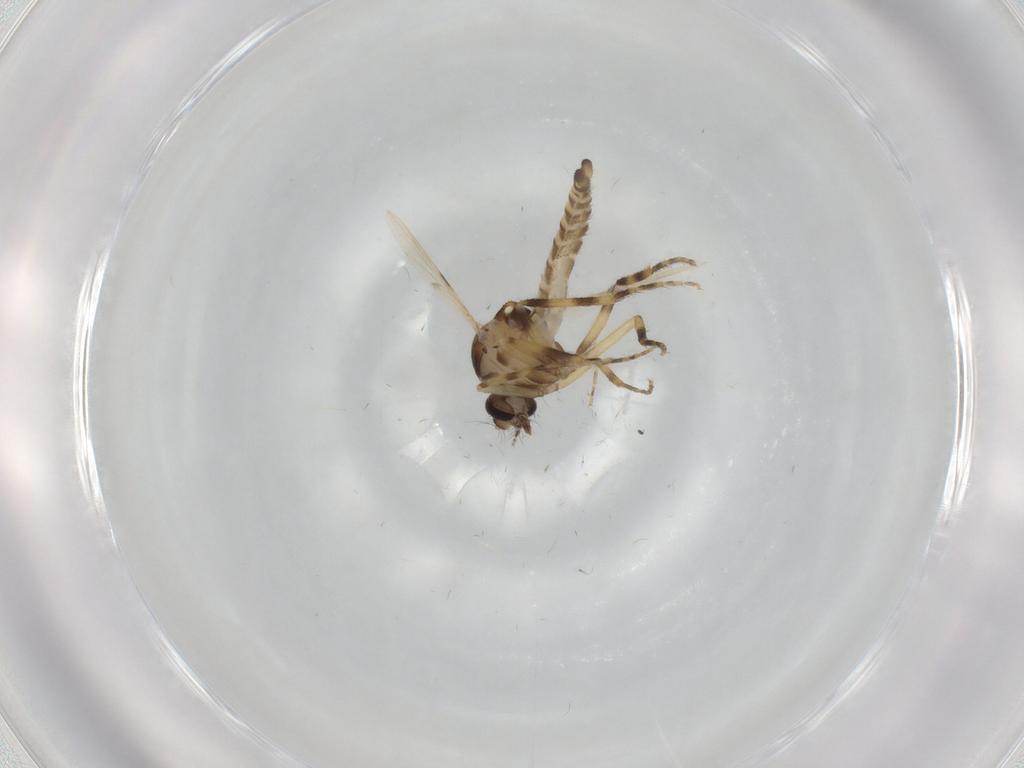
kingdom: Animalia
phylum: Arthropoda
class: Insecta
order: Diptera
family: Ceratopogonidae
